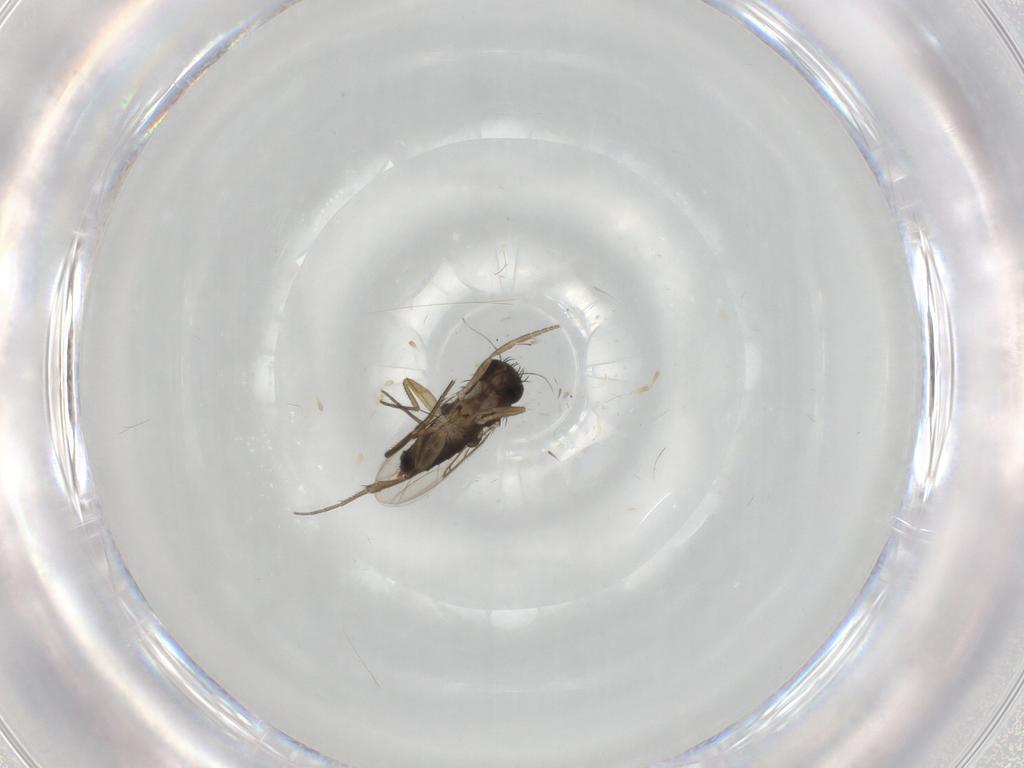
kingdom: Animalia
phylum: Arthropoda
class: Insecta
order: Diptera
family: Phoridae
